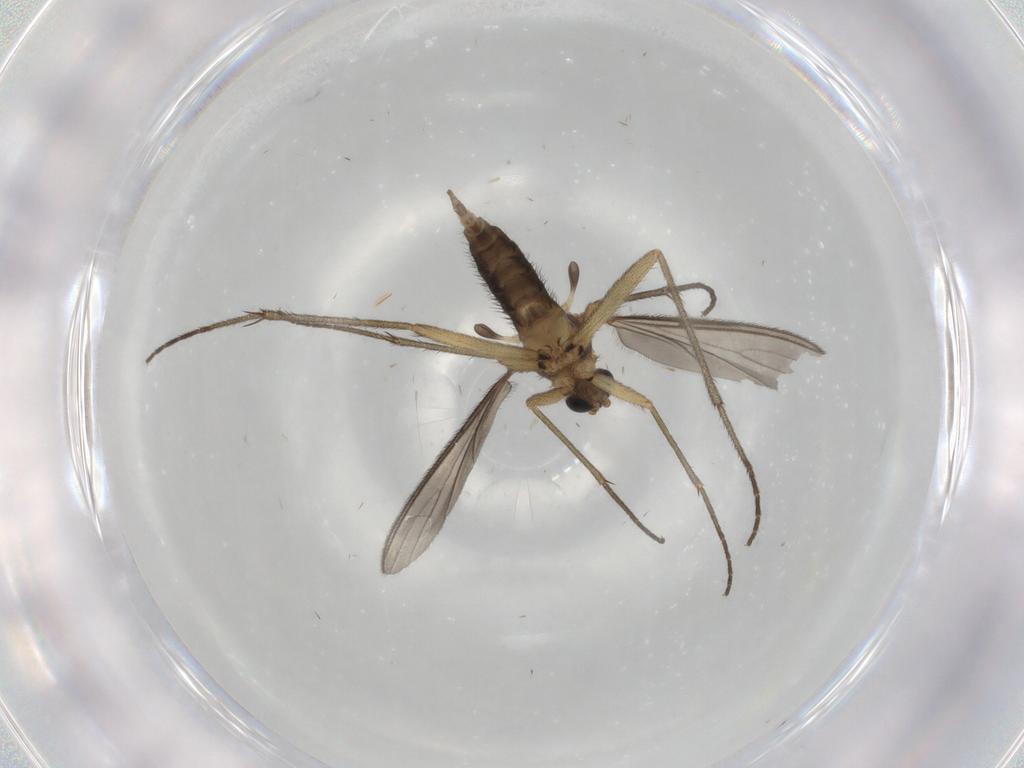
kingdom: Animalia
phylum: Arthropoda
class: Insecta
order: Diptera
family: Sciaridae
